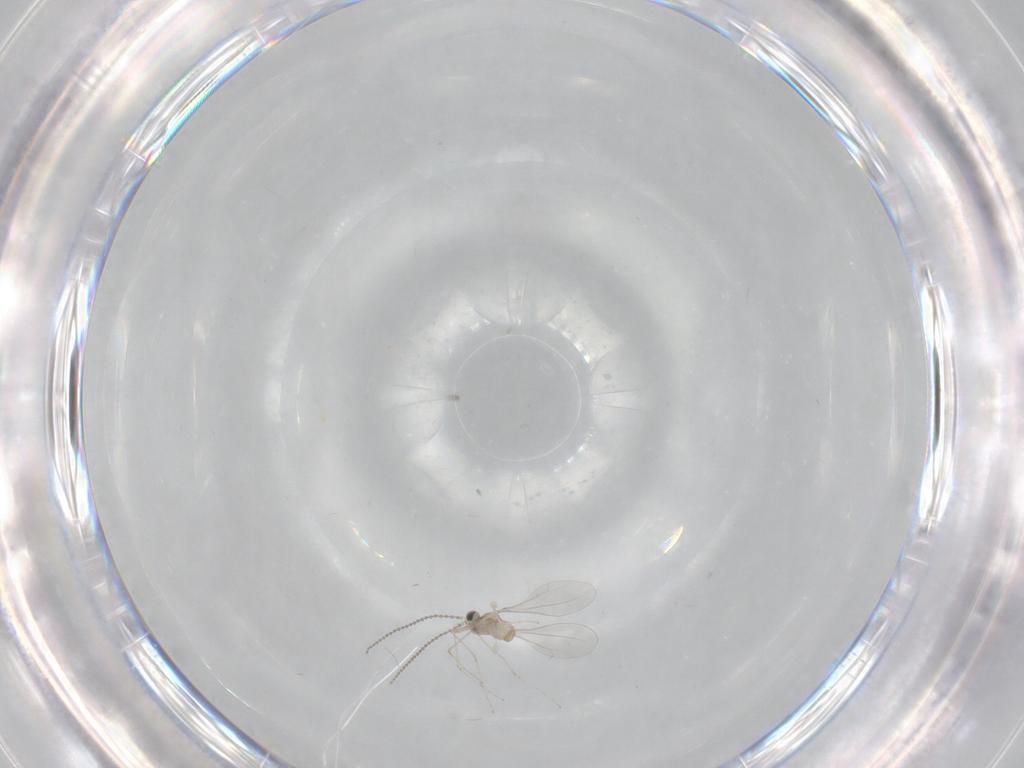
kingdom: Animalia
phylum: Arthropoda
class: Insecta
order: Diptera
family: Cecidomyiidae
